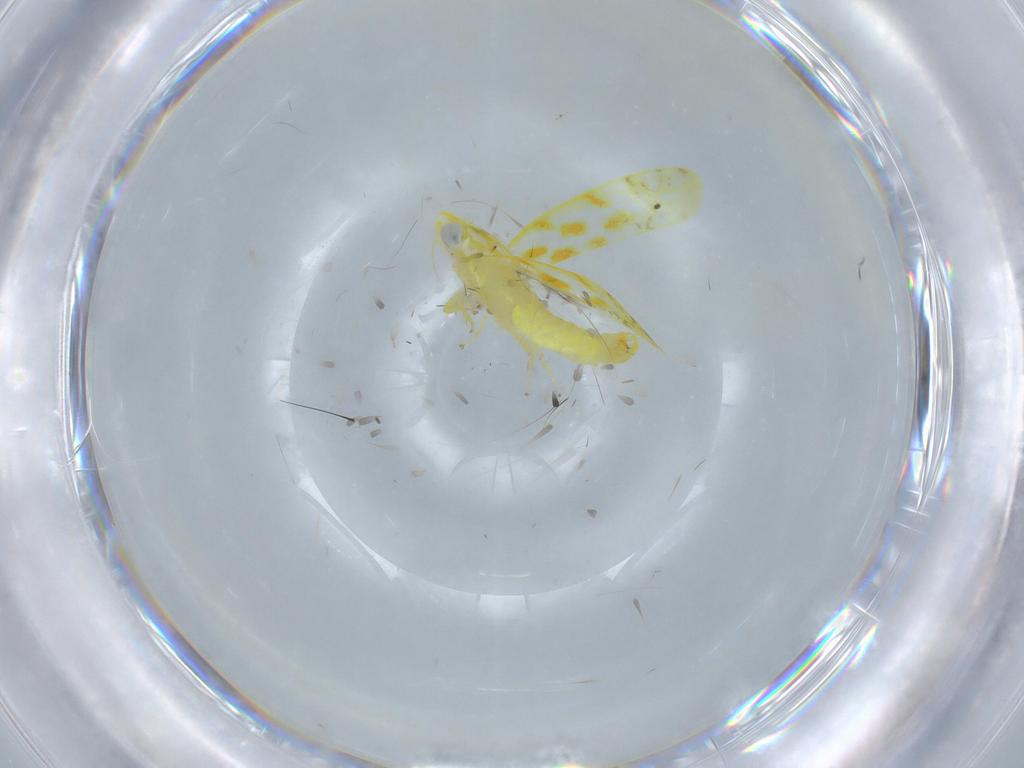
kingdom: Animalia
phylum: Arthropoda
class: Insecta
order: Hemiptera
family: Cicadellidae
